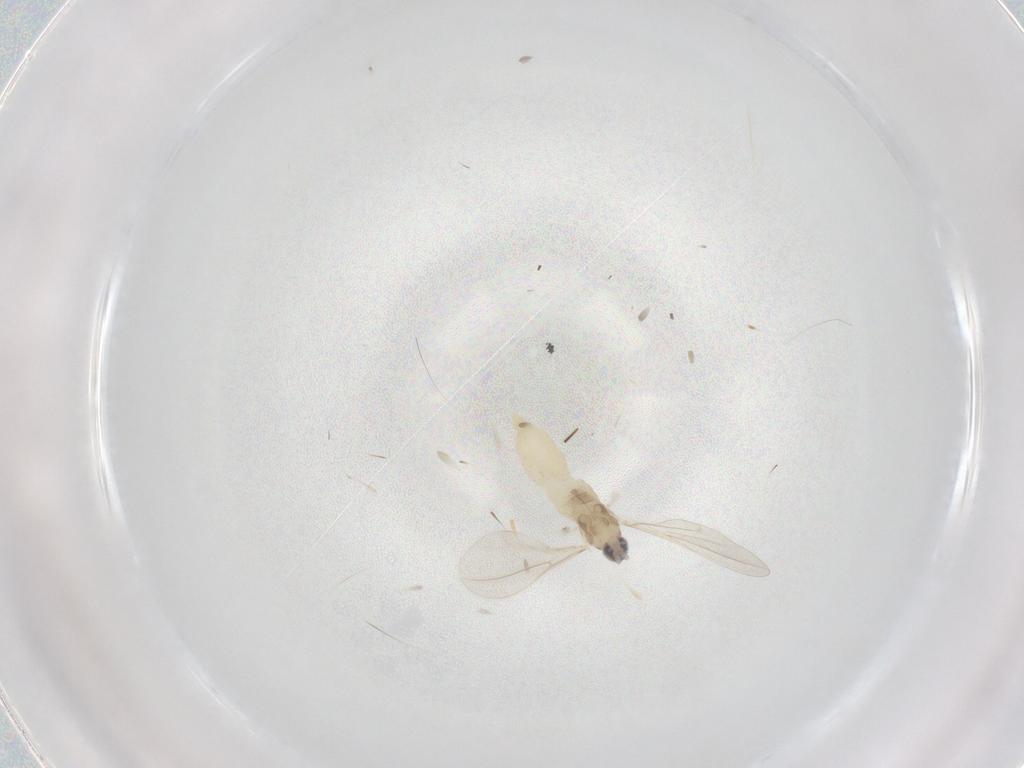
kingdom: Animalia
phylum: Arthropoda
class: Insecta
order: Diptera
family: Cecidomyiidae
